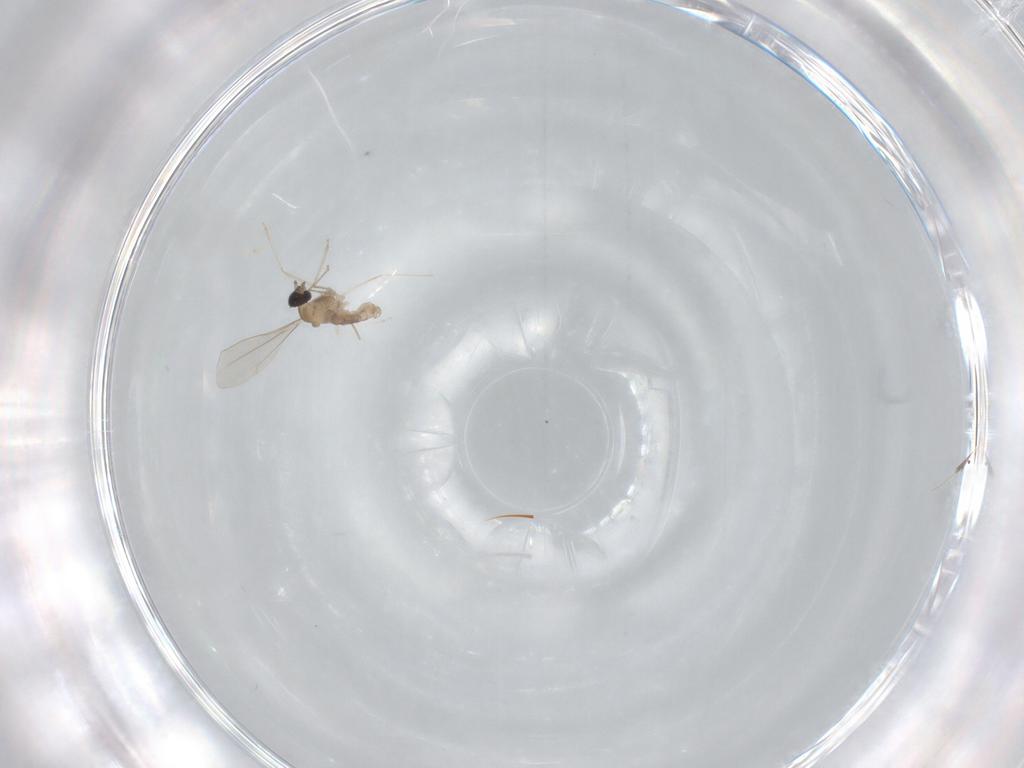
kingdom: Animalia
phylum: Arthropoda
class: Insecta
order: Diptera
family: Cecidomyiidae
